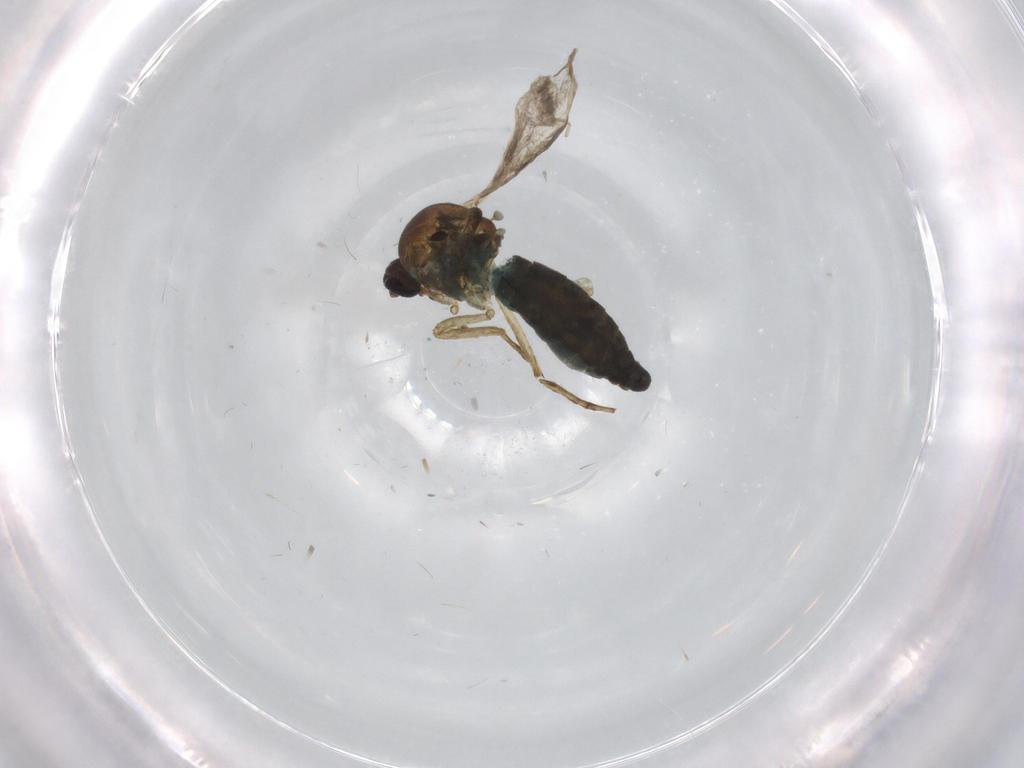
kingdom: Animalia
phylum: Arthropoda
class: Insecta
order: Diptera
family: Ceratopogonidae
